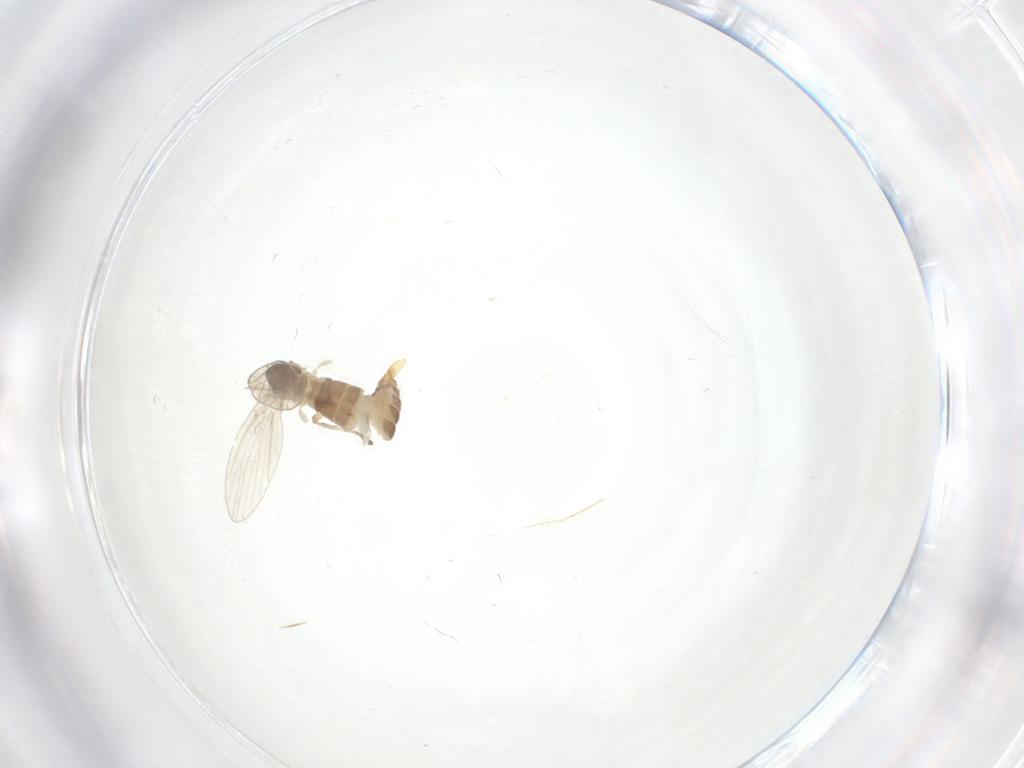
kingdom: Animalia
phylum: Arthropoda
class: Insecta
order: Diptera
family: Psychodidae
